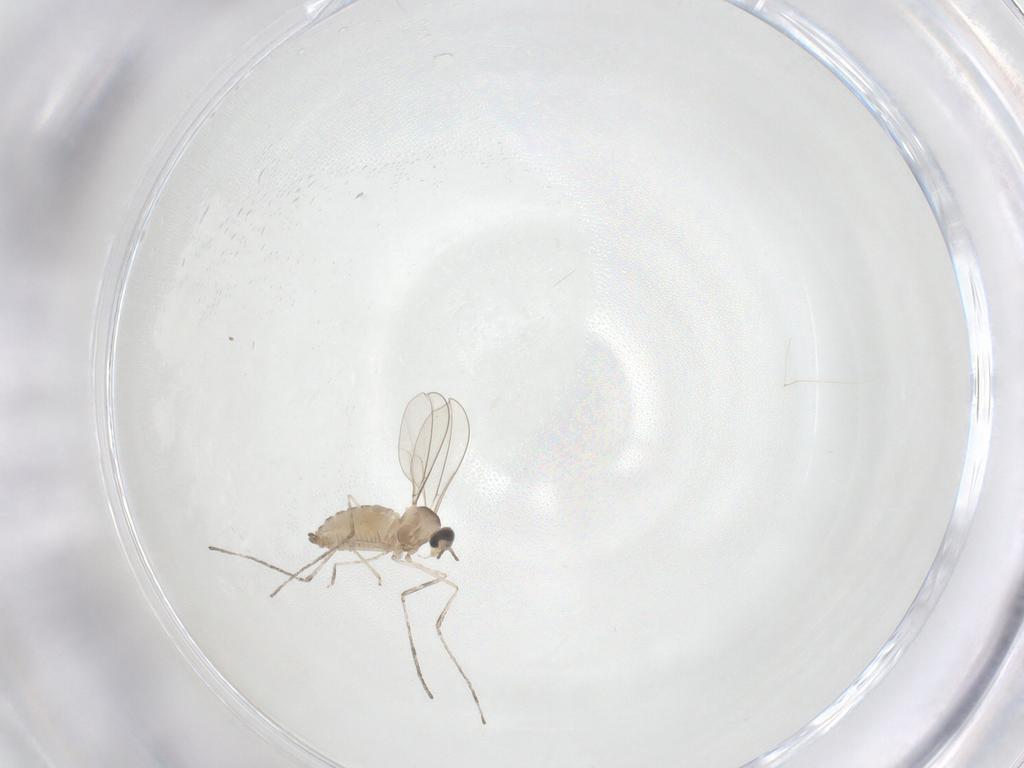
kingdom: Animalia
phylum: Arthropoda
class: Insecta
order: Diptera
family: Cecidomyiidae
